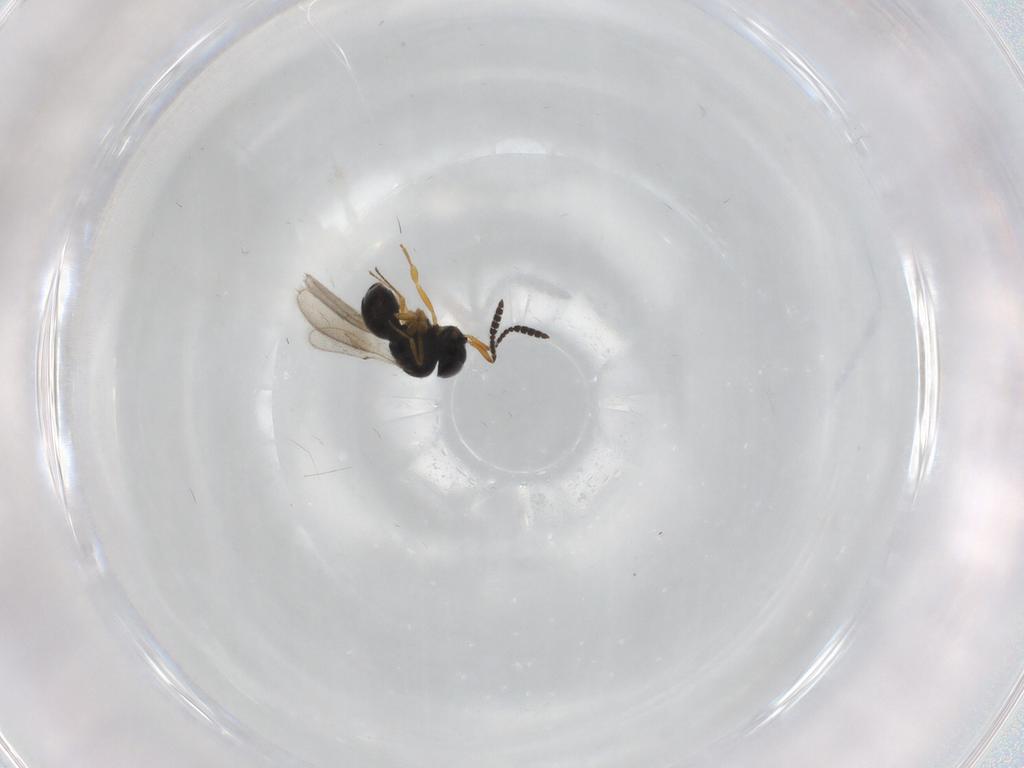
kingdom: Animalia
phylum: Arthropoda
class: Insecta
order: Hymenoptera
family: Scelionidae
